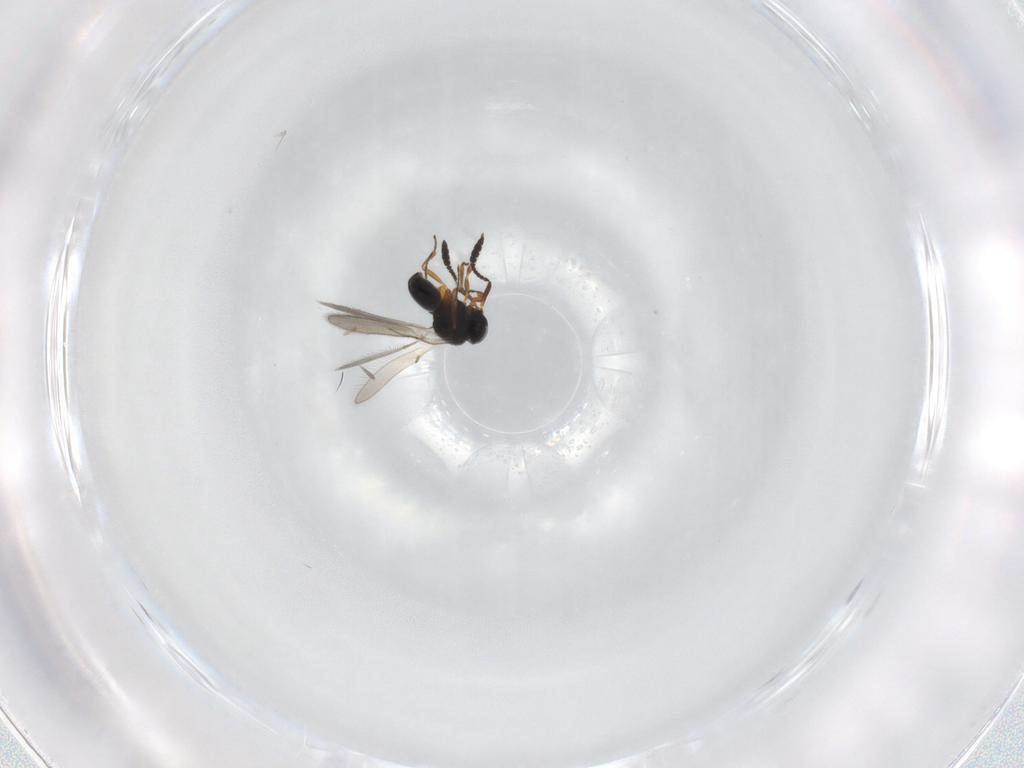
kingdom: Animalia
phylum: Arthropoda
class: Insecta
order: Hymenoptera
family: Scelionidae
